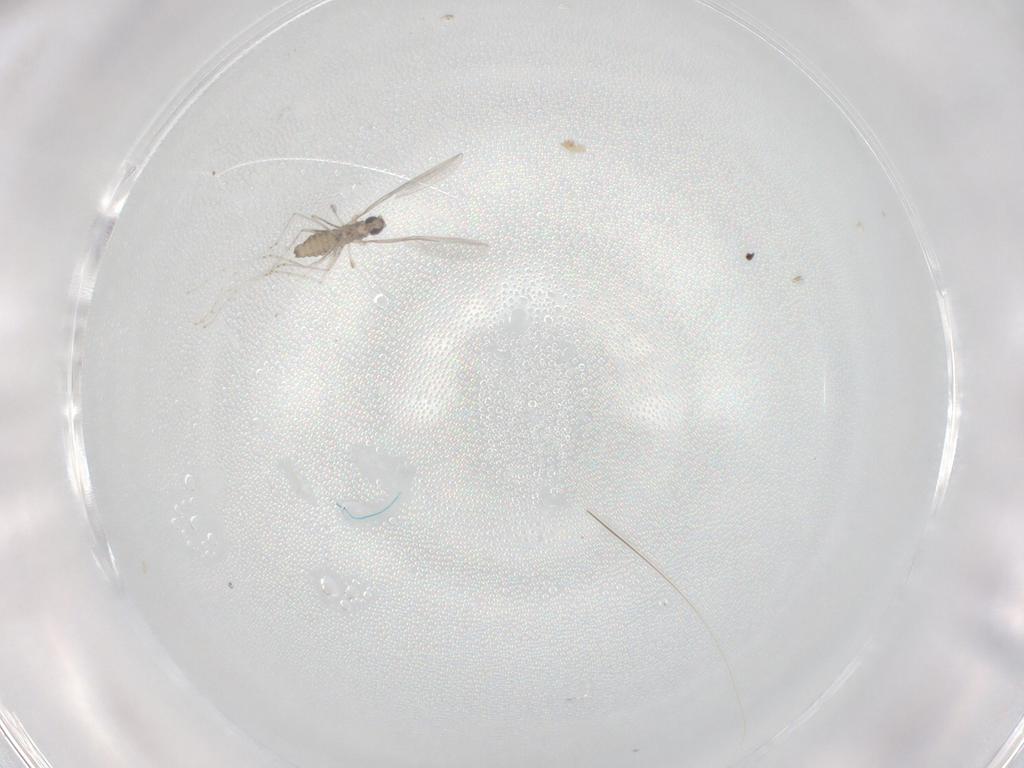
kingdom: Animalia
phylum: Arthropoda
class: Insecta
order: Diptera
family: Cecidomyiidae
